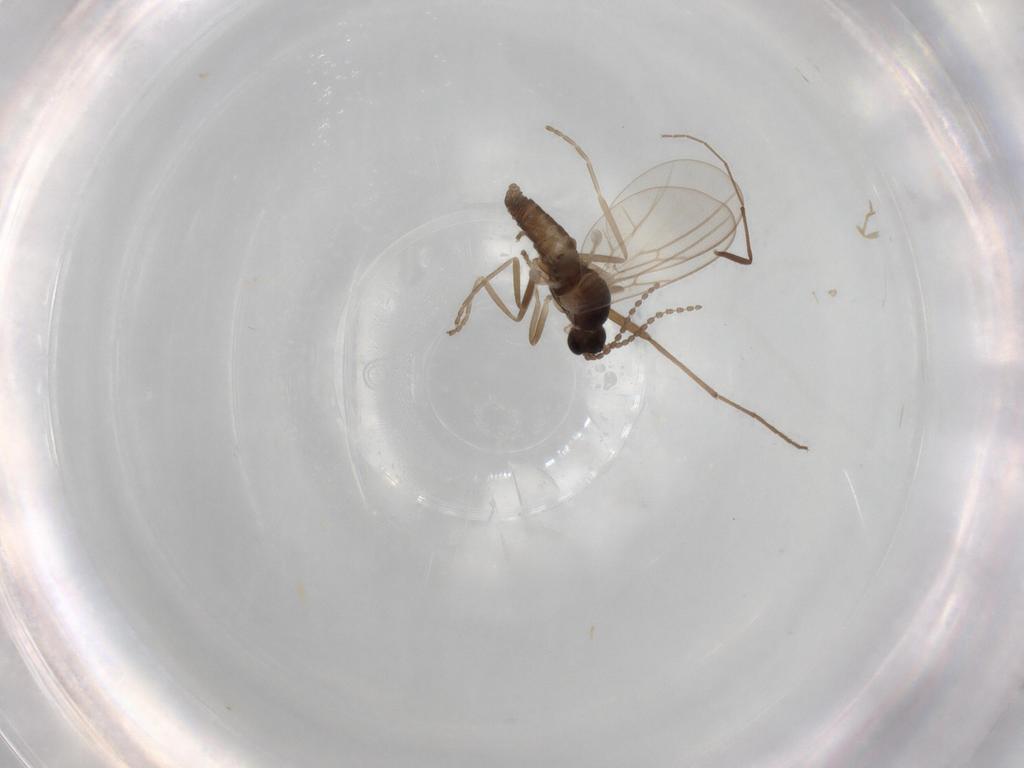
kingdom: Animalia
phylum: Arthropoda
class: Insecta
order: Diptera
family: Cecidomyiidae
